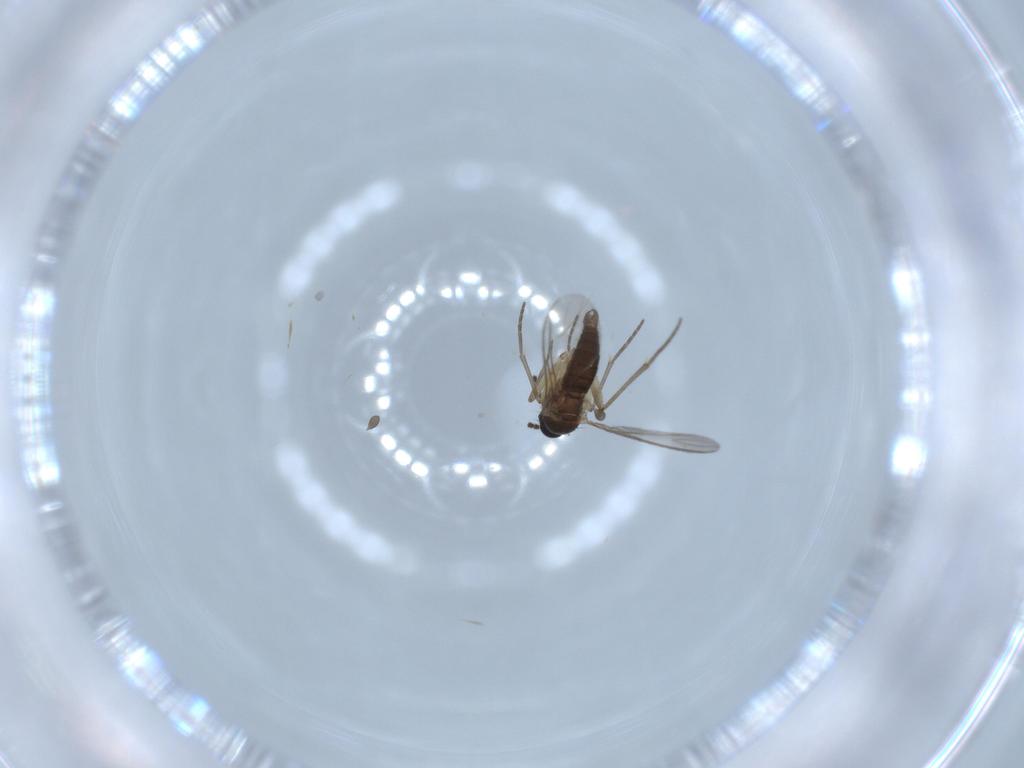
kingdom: Animalia
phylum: Arthropoda
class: Insecta
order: Diptera
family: Sciaridae
